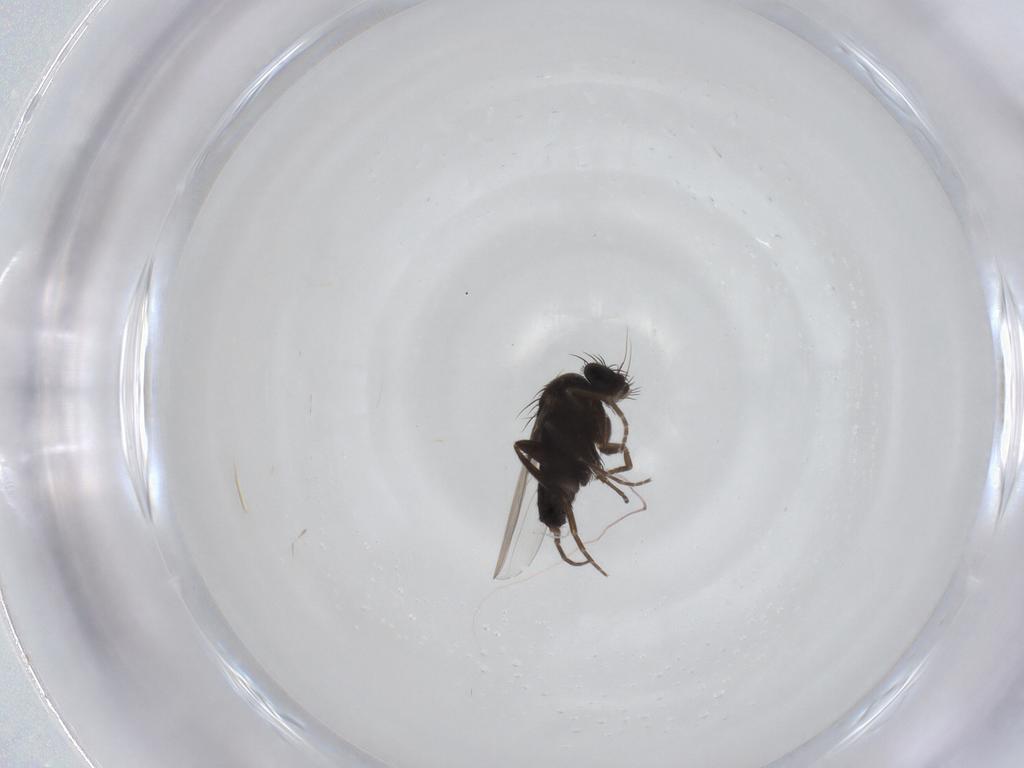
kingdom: Animalia
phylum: Arthropoda
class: Insecta
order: Diptera
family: Phoridae
